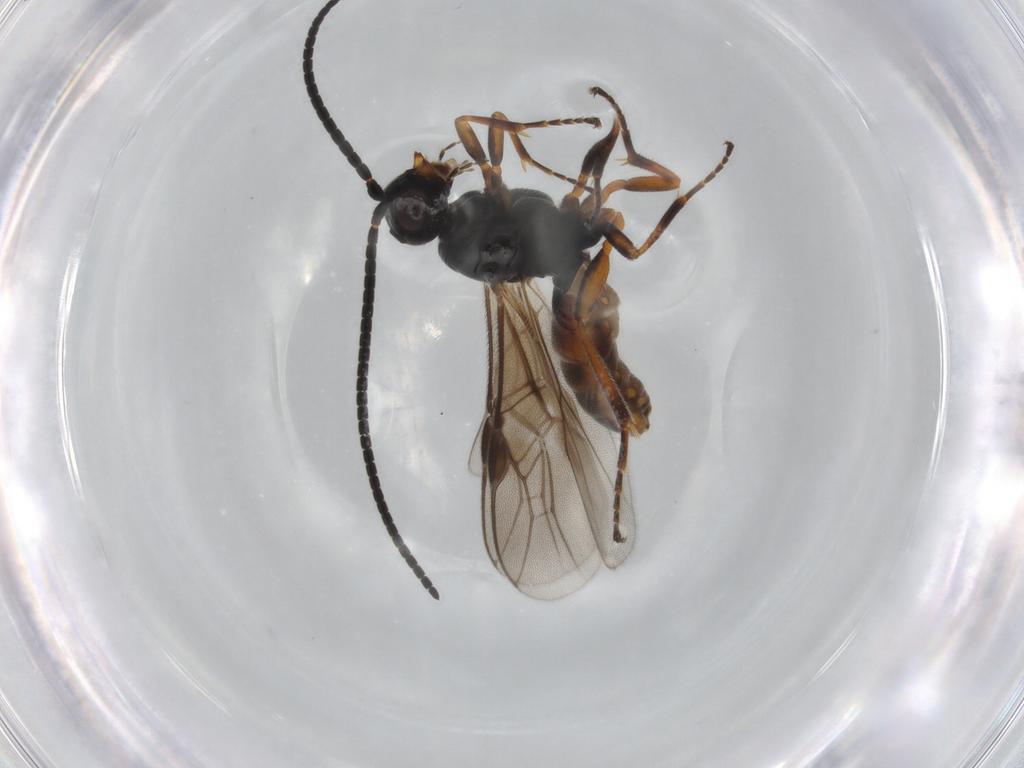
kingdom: Animalia
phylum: Arthropoda
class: Insecta
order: Hymenoptera
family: Braconidae
